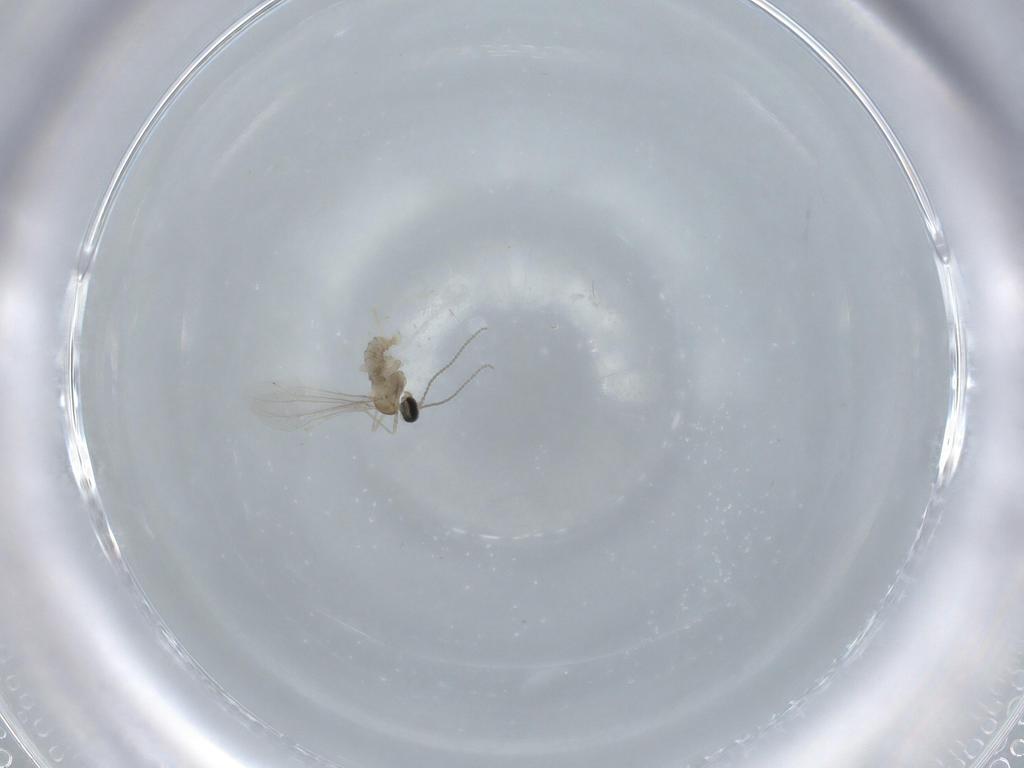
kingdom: Animalia
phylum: Arthropoda
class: Insecta
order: Diptera
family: Cecidomyiidae
